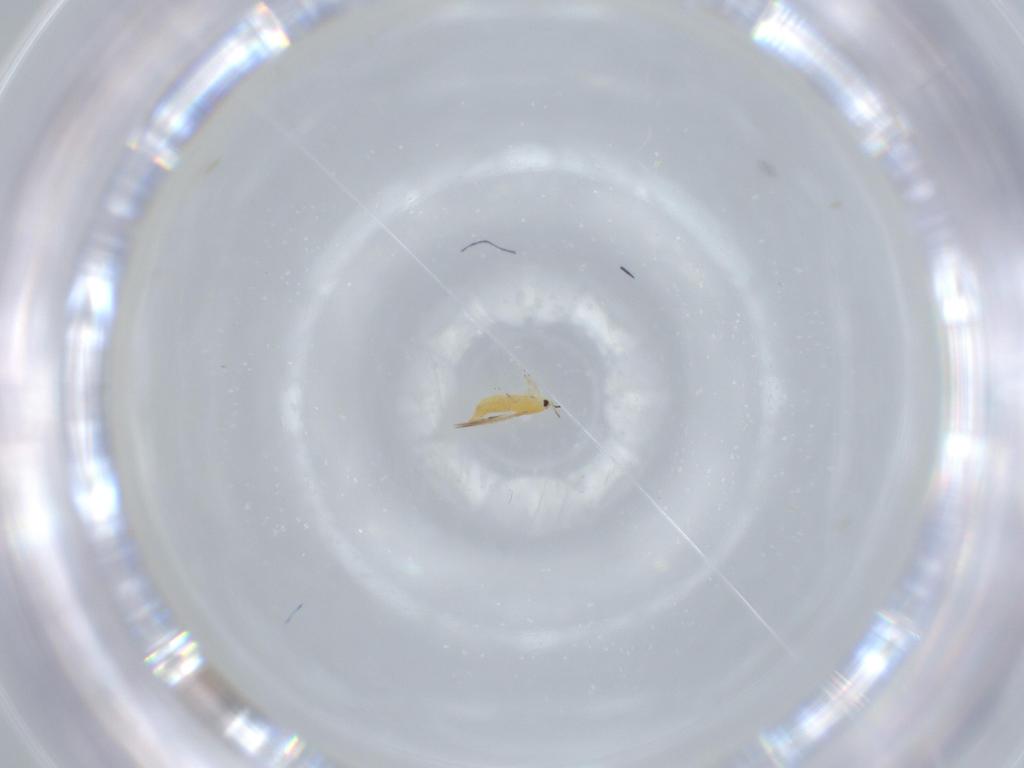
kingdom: Animalia
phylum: Arthropoda
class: Insecta
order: Thysanoptera
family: Thripidae
